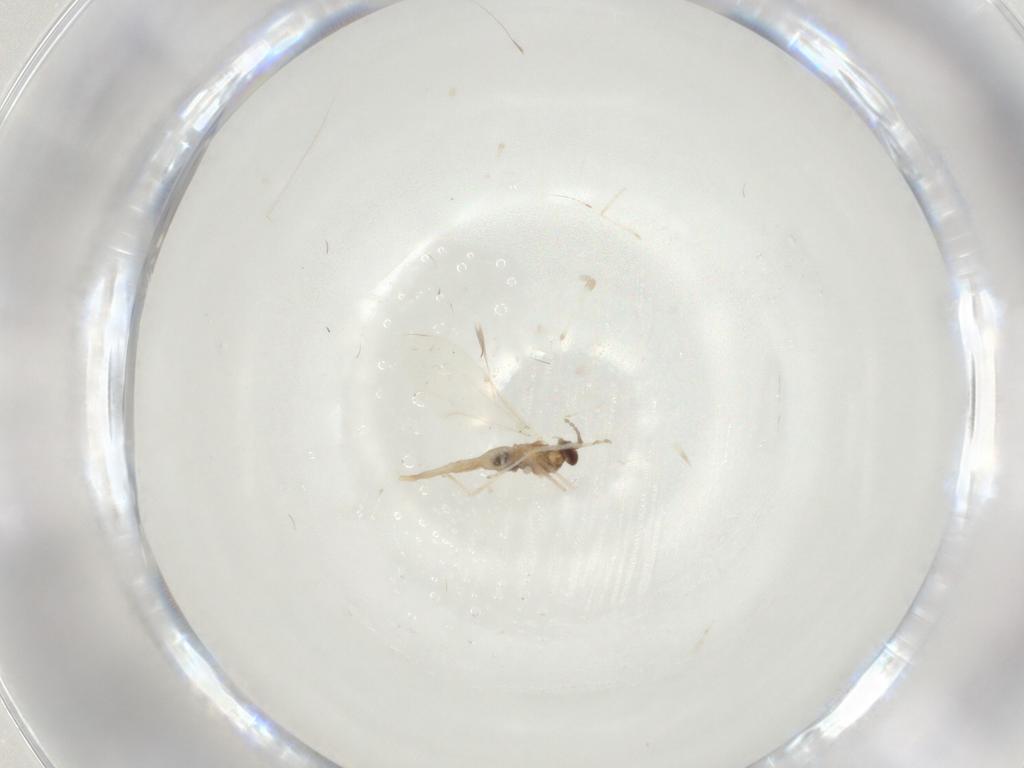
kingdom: Animalia
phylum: Arthropoda
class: Insecta
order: Diptera
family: Cecidomyiidae
